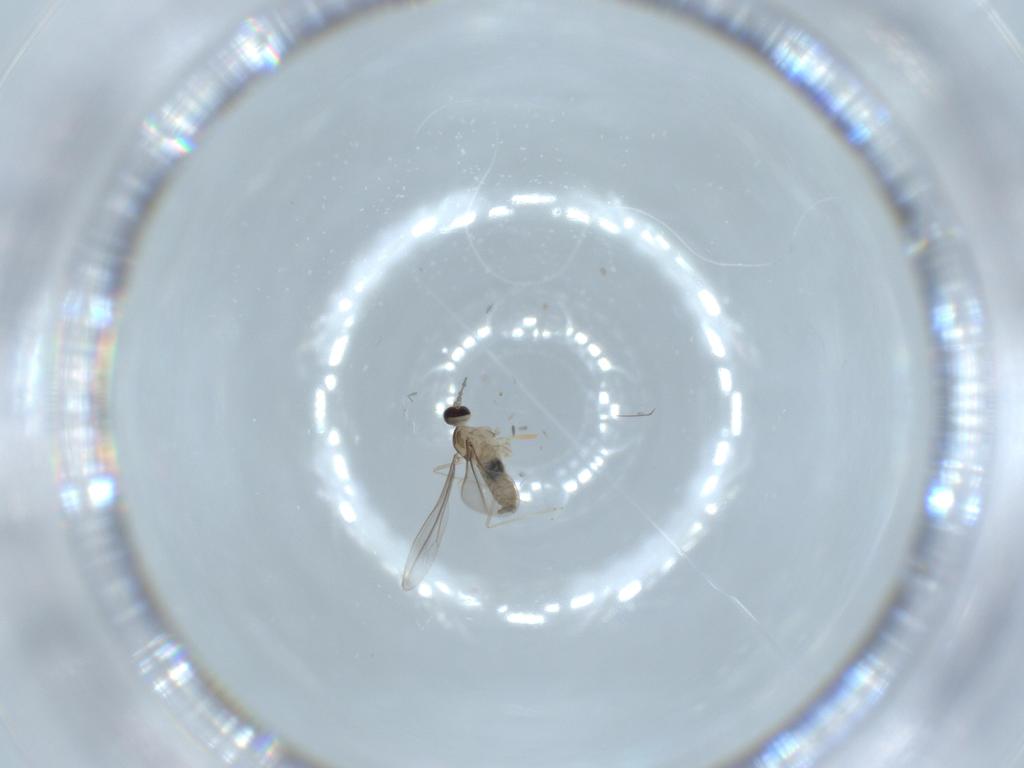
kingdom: Animalia
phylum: Arthropoda
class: Insecta
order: Diptera
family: Cecidomyiidae
